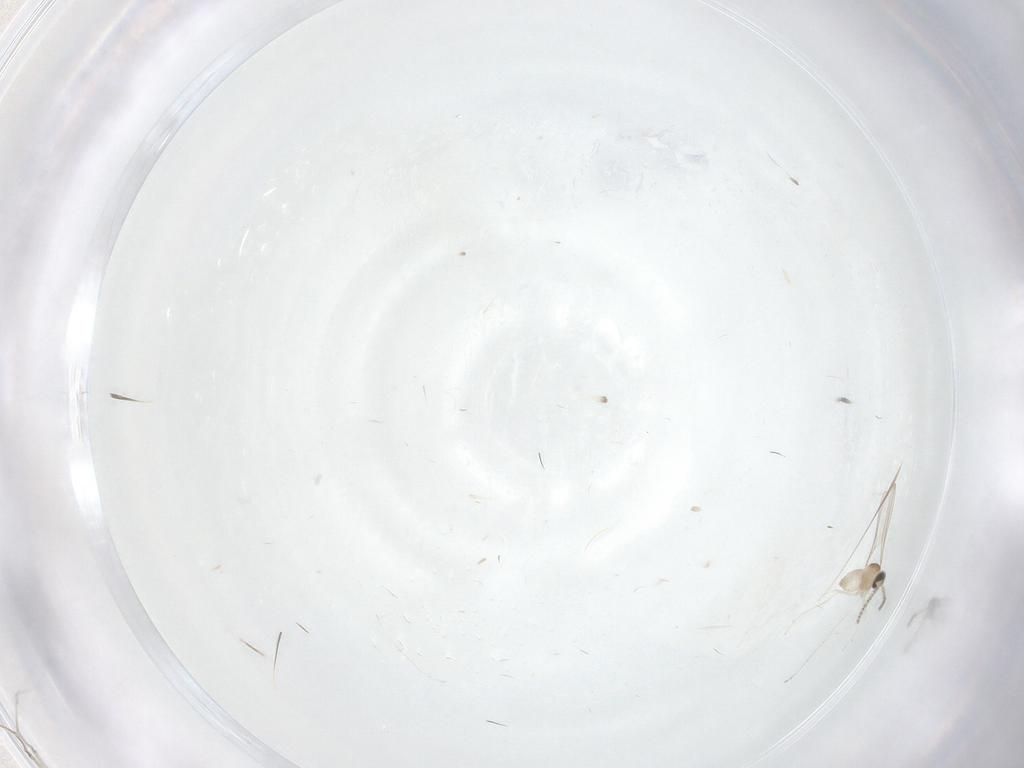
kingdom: Animalia
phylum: Arthropoda
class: Insecta
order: Diptera
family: Cecidomyiidae
